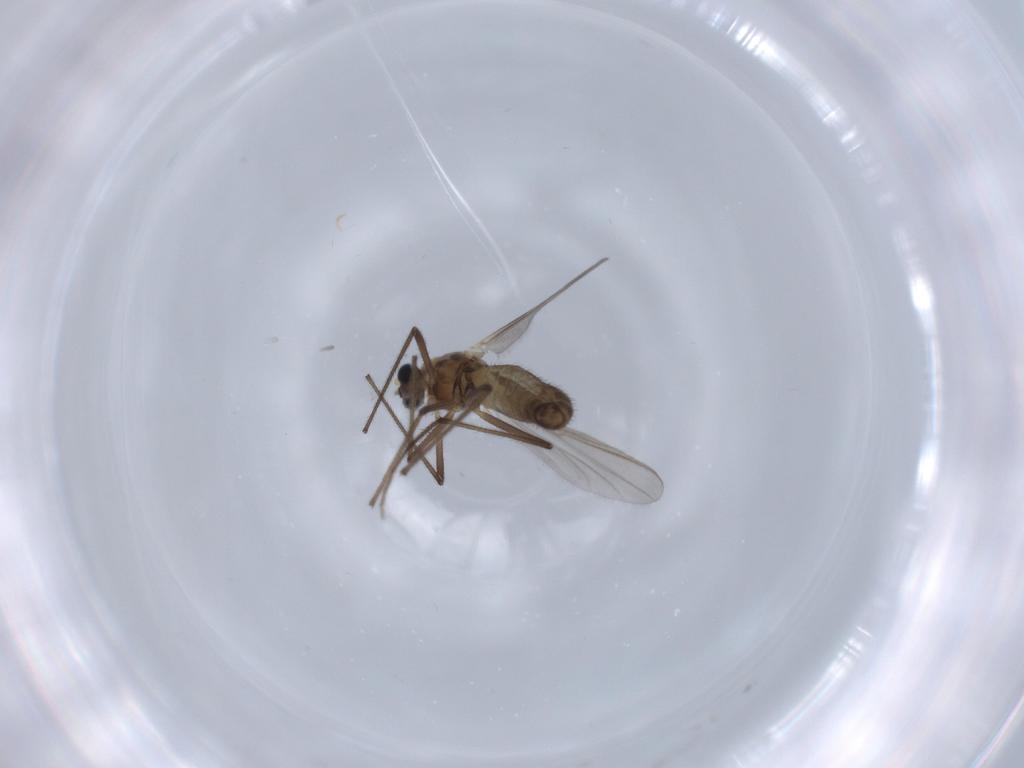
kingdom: Animalia
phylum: Arthropoda
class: Insecta
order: Diptera
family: Chironomidae
